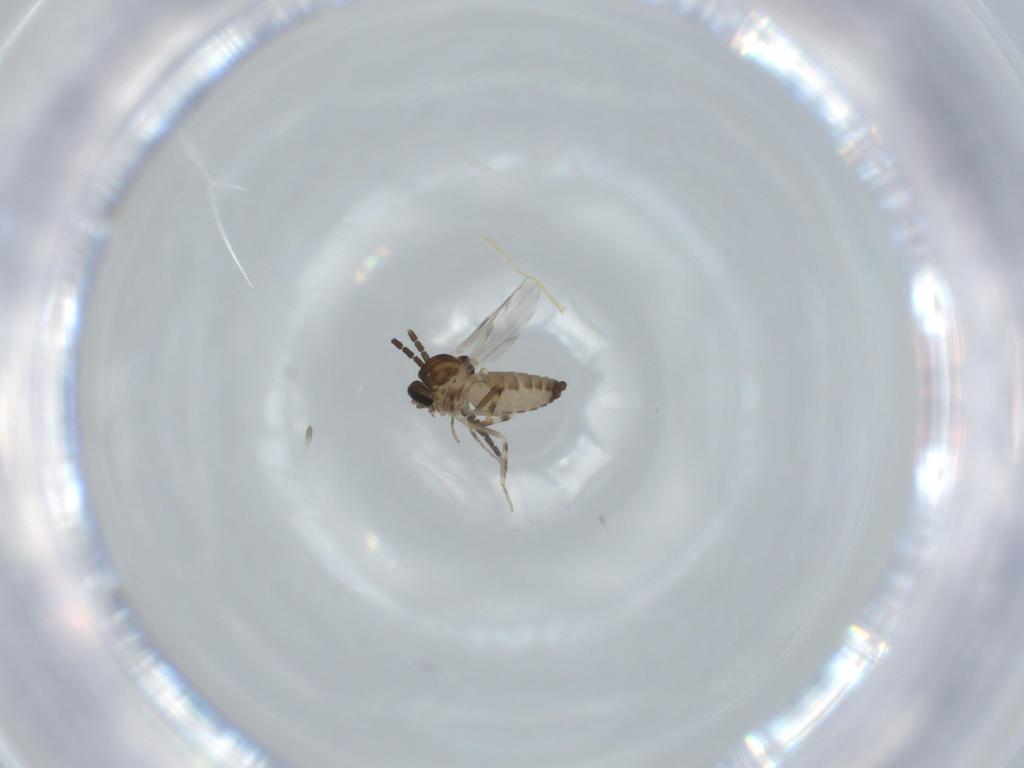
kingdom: Animalia
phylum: Arthropoda
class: Insecta
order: Diptera
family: Ceratopogonidae
